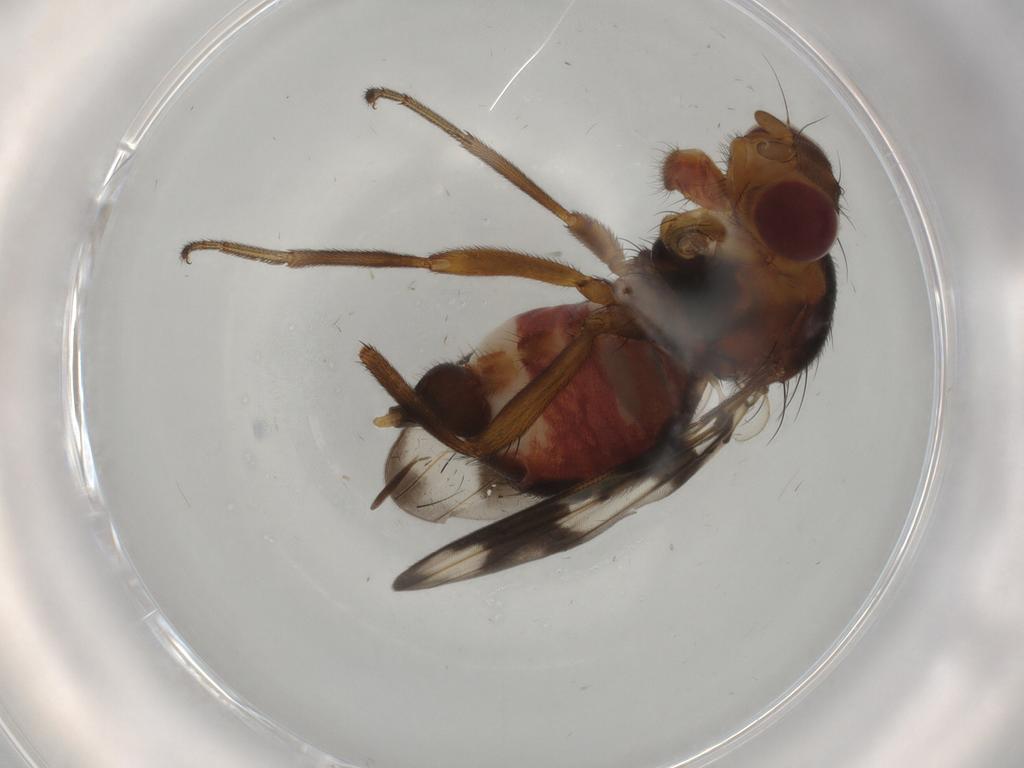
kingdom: Animalia
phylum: Arthropoda
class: Insecta
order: Diptera
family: Richardiidae
